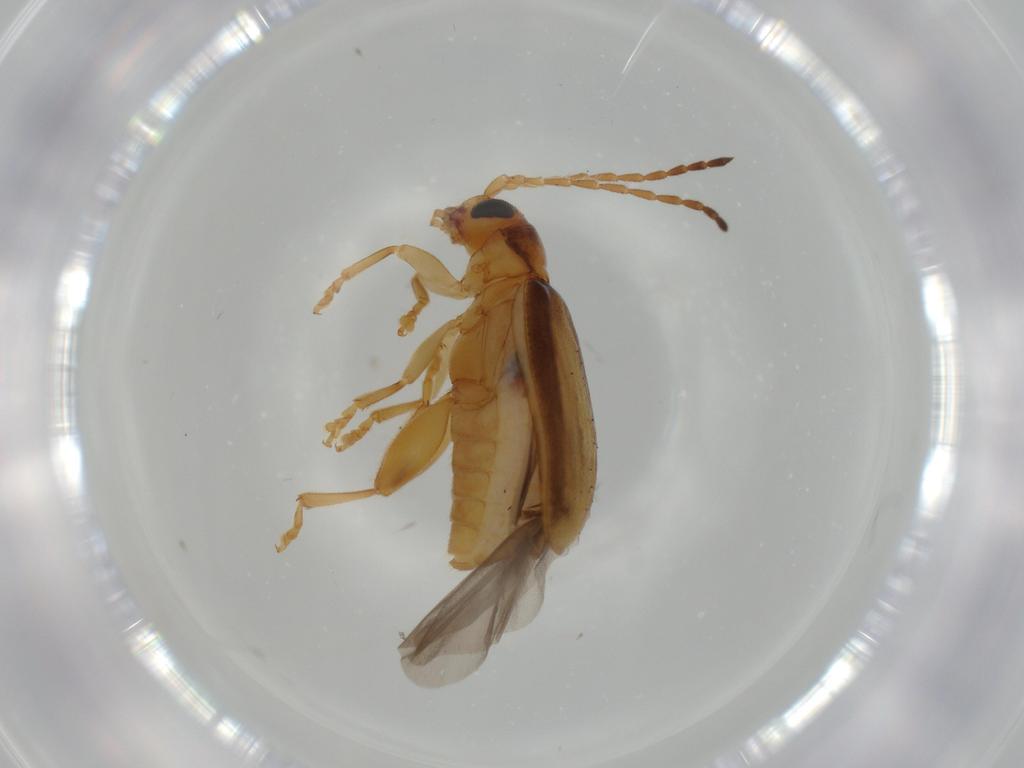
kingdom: Animalia
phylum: Arthropoda
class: Insecta
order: Coleoptera
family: Chrysomelidae
